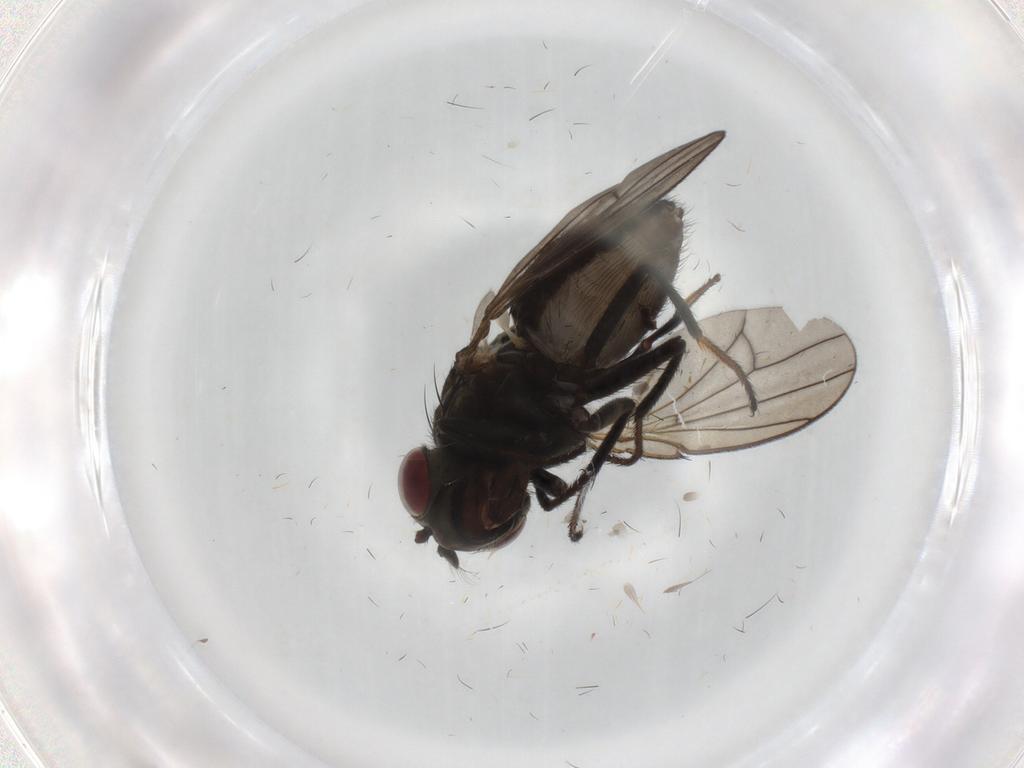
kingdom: Animalia
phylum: Arthropoda
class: Insecta
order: Diptera
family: Ephydridae
